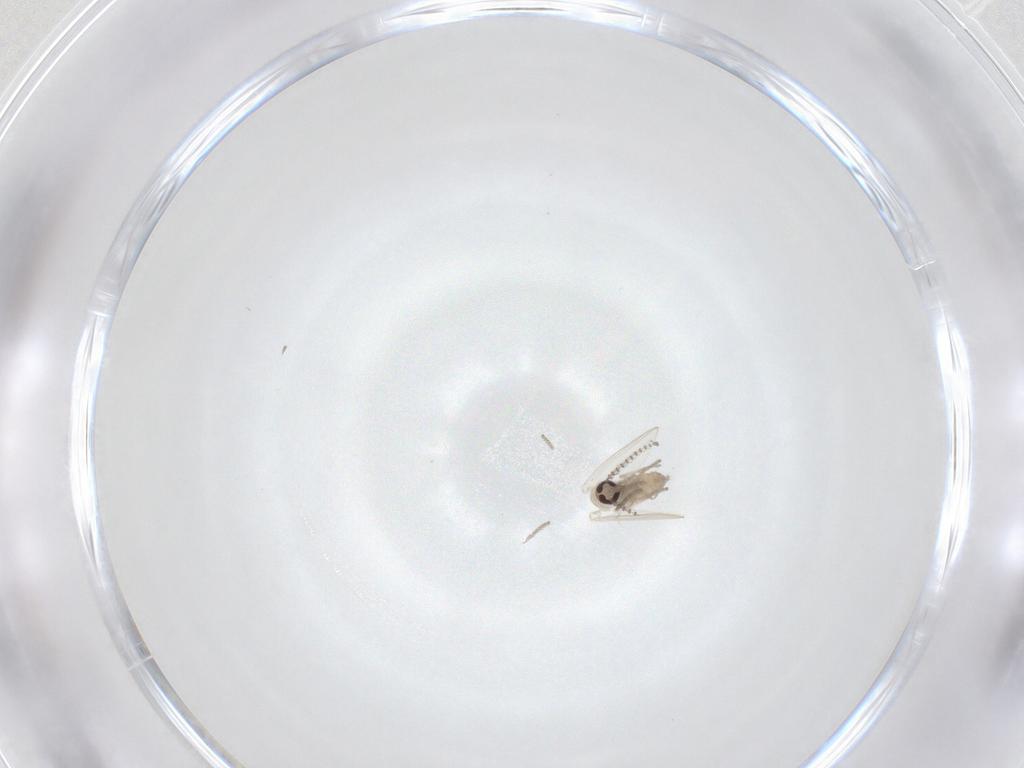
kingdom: Animalia
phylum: Arthropoda
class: Insecta
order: Diptera
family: Psychodidae
